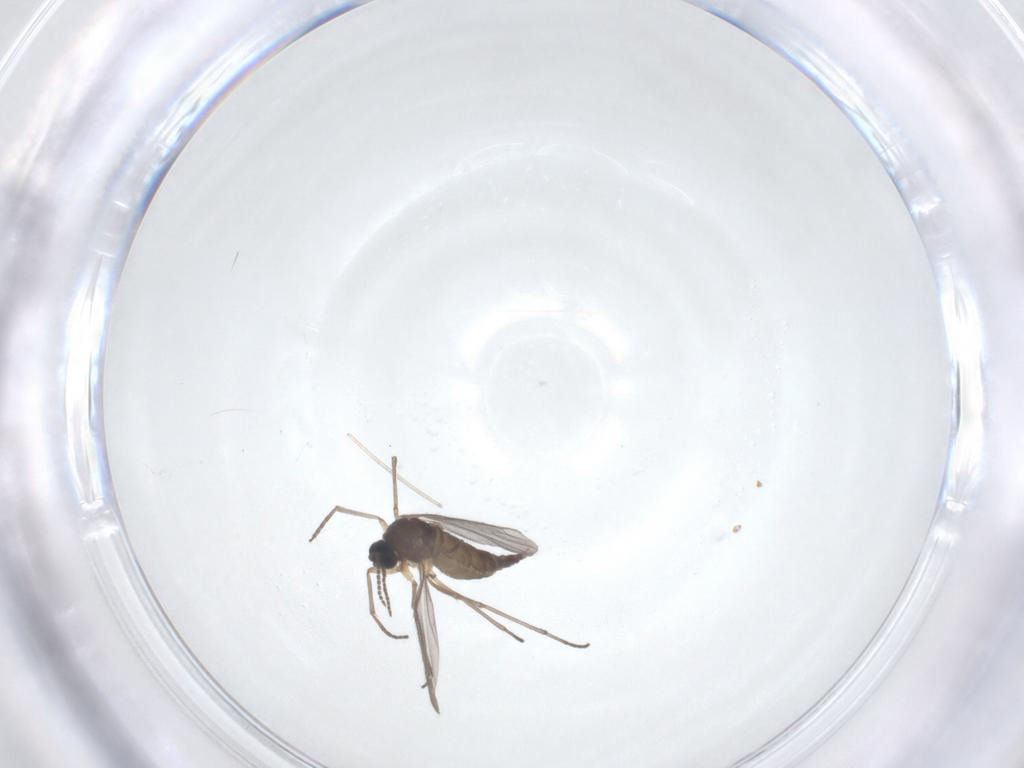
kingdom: Animalia
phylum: Arthropoda
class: Insecta
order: Diptera
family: Sciaridae
